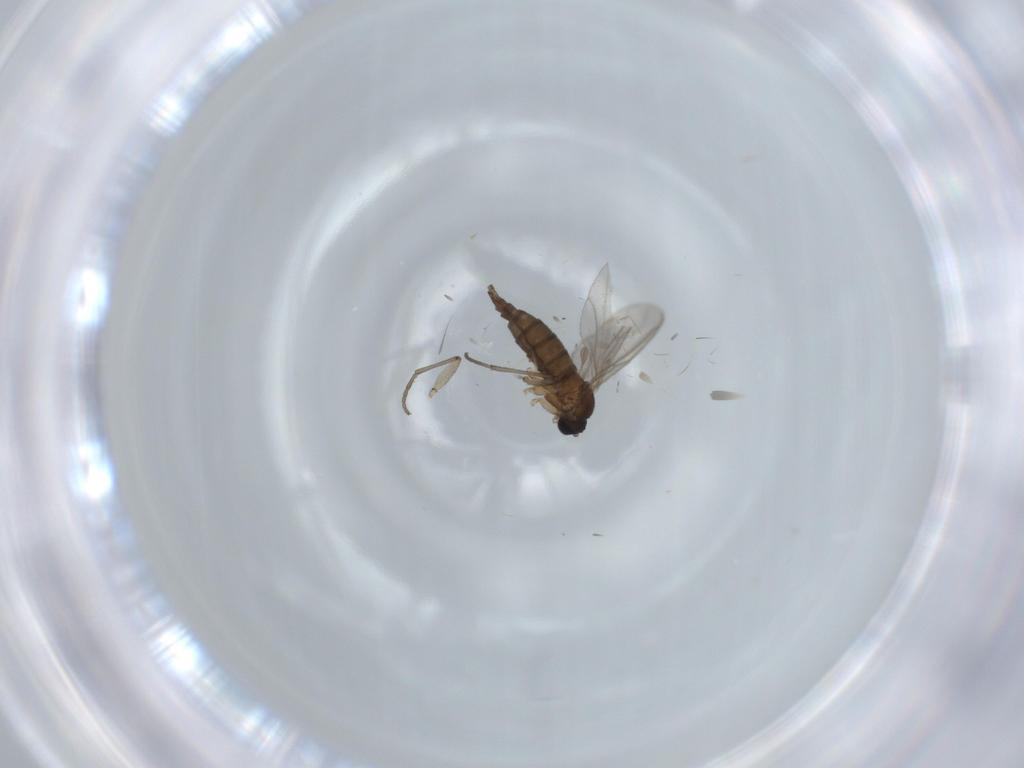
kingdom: Animalia
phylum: Arthropoda
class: Insecta
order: Diptera
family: Sciaridae
